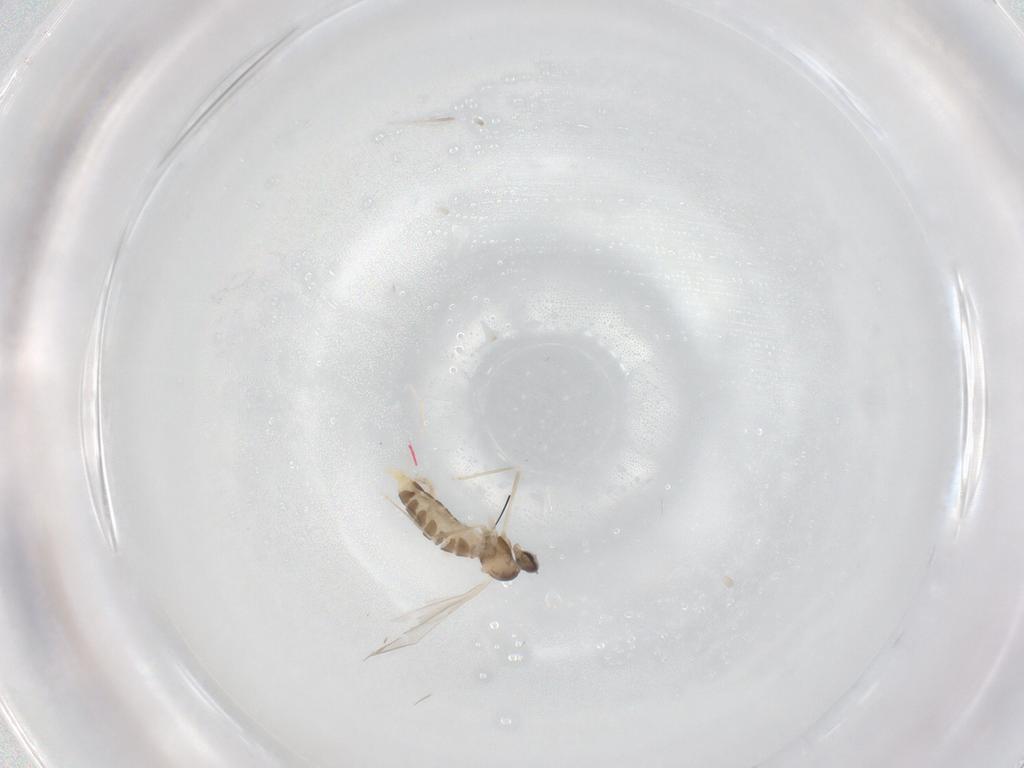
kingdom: Animalia
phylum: Arthropoda
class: Insecta
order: Diptera
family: Cecidomyiidae
